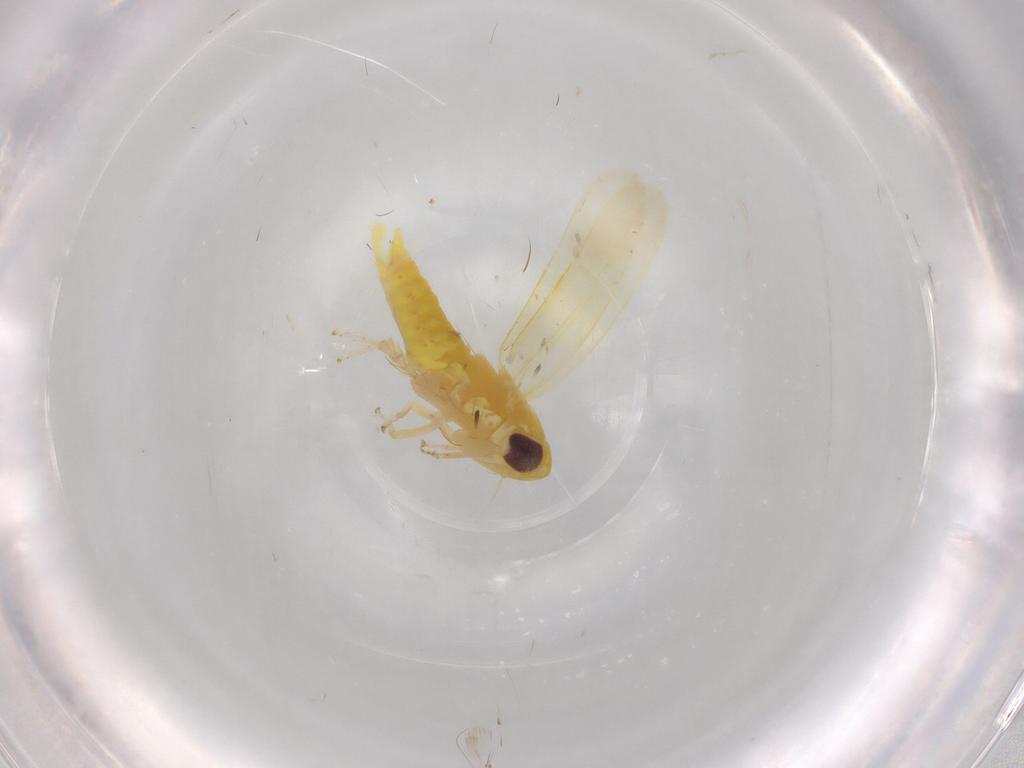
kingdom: Animalia
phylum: Arthropoda
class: Insecta
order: Hemiptera
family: Cicadellidae
